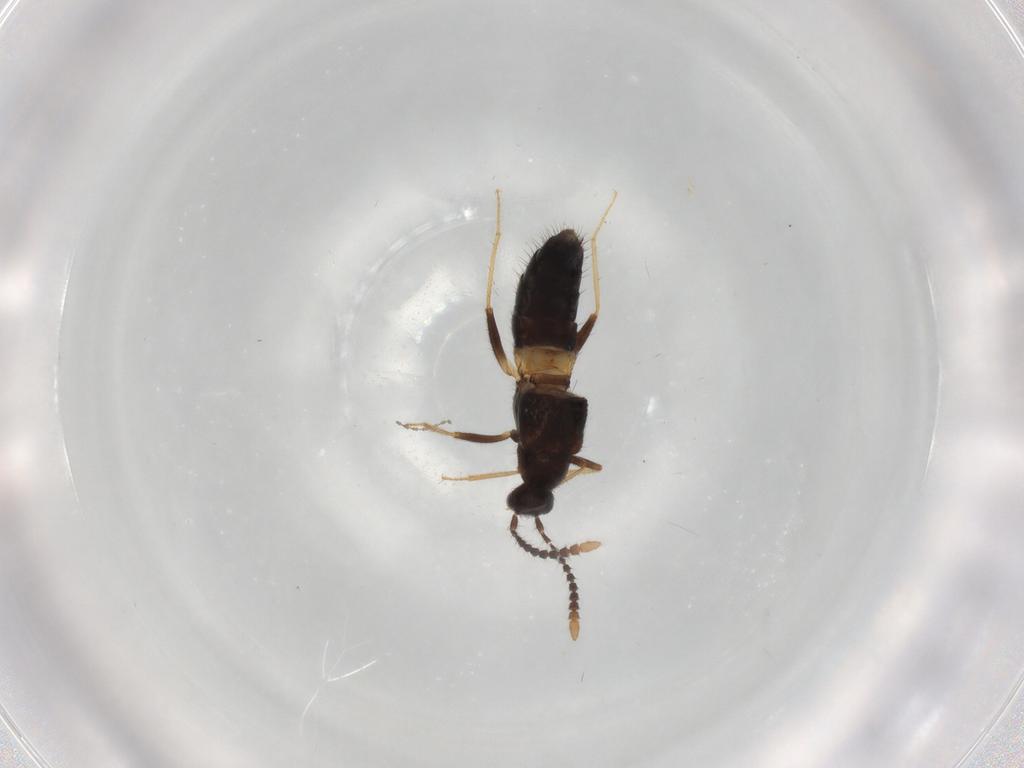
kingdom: Animalia
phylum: Arthropoda
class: Insecta
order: Coleoptera
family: Staphylinidae
